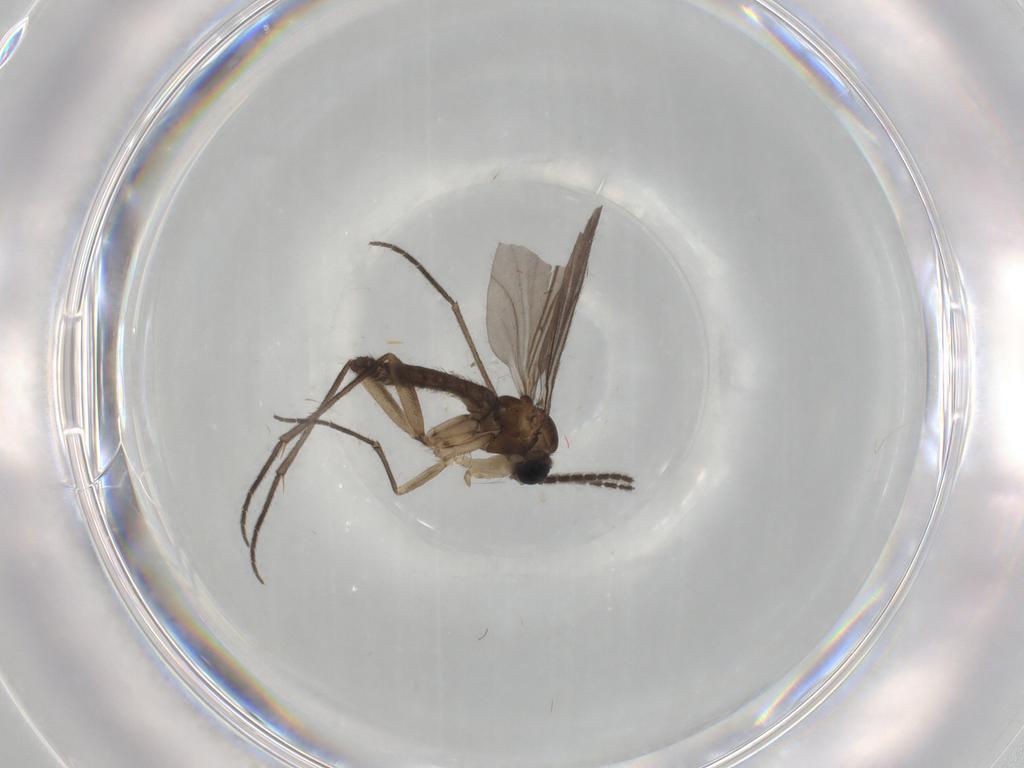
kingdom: Animalia
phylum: Arthropoda
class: Insecta
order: Diptera
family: Sciaridae
